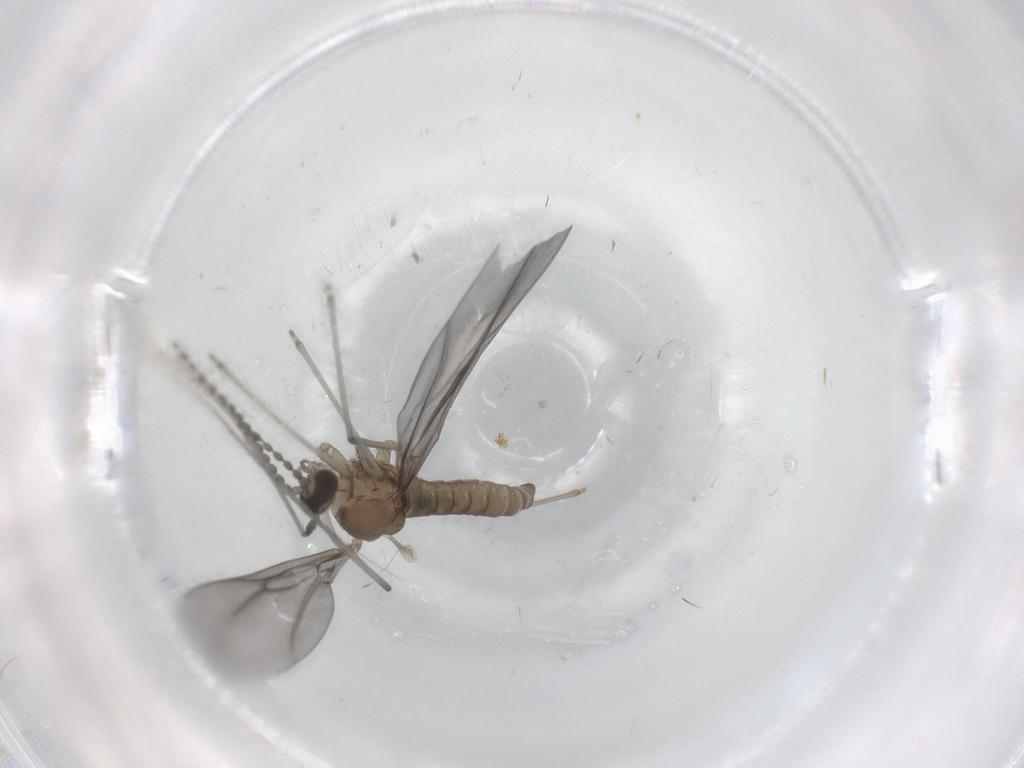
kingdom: Animalia
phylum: Arthropoda
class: Insecta
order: Diptera
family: Cecidomyiidae
